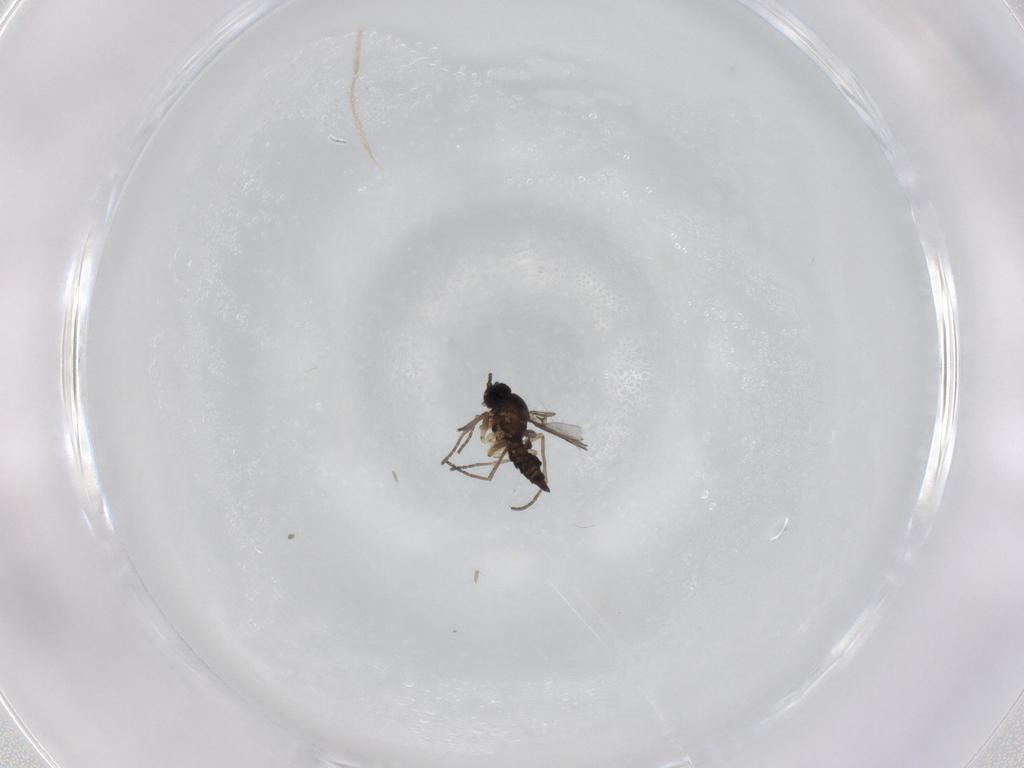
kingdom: Animalia
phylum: Arthropoda
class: Insecta
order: Diptera
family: Sciaridae
